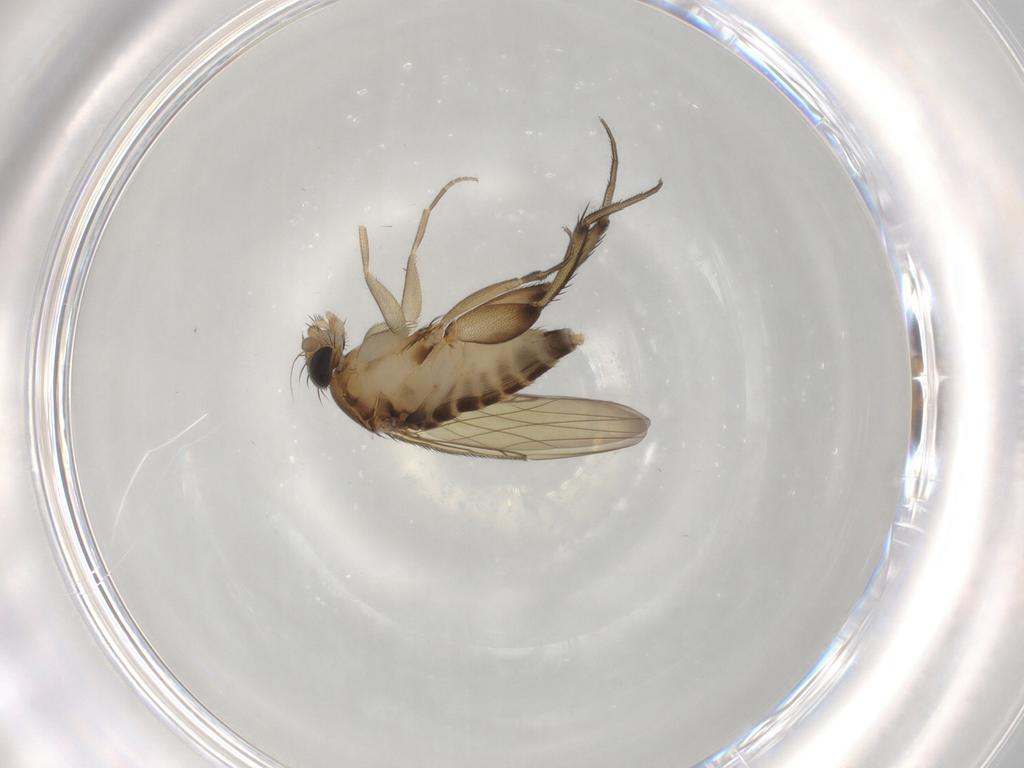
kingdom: Animalia
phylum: Arthropoda
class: Insecta
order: Diptera
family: Phoridae
